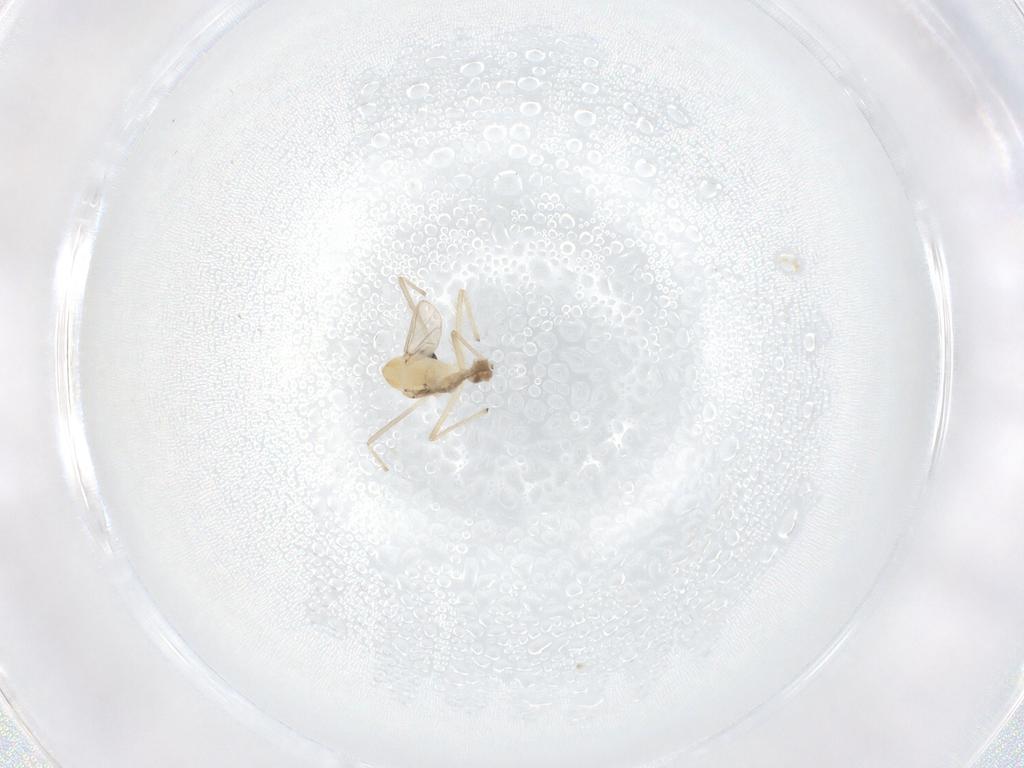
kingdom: Animalia
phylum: Arthropoda
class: Insecta
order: Diptera
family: Chironomidae
